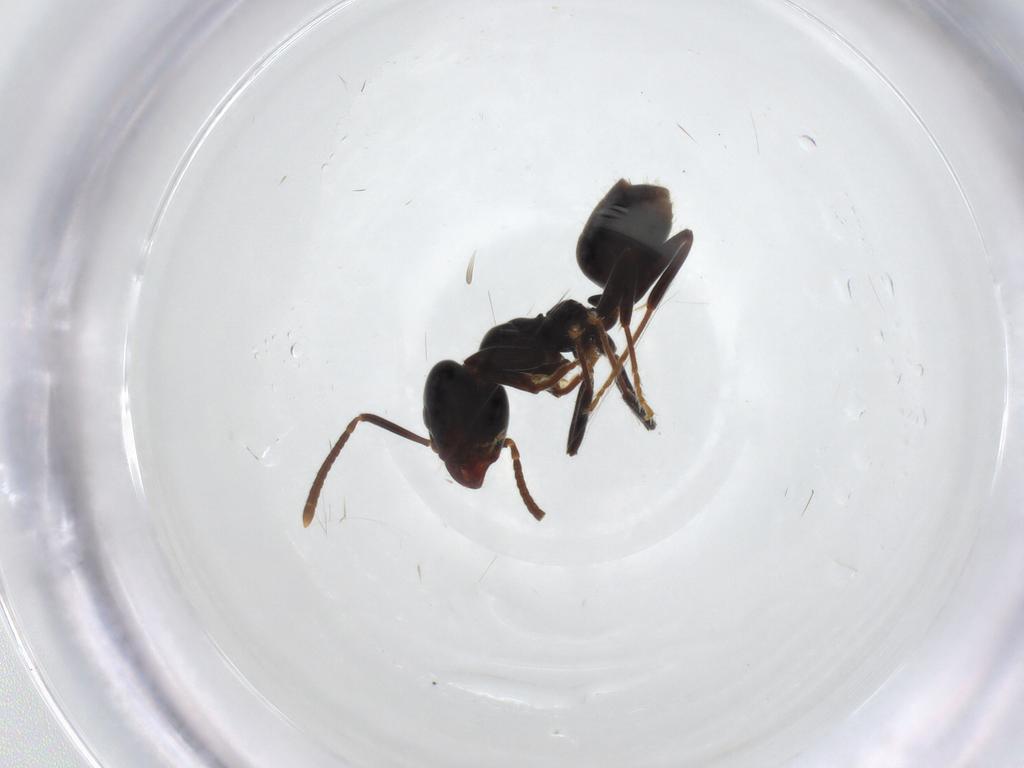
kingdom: Animalia
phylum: Arthropoda
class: Insecta
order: Hymenoptera
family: Formicidae
